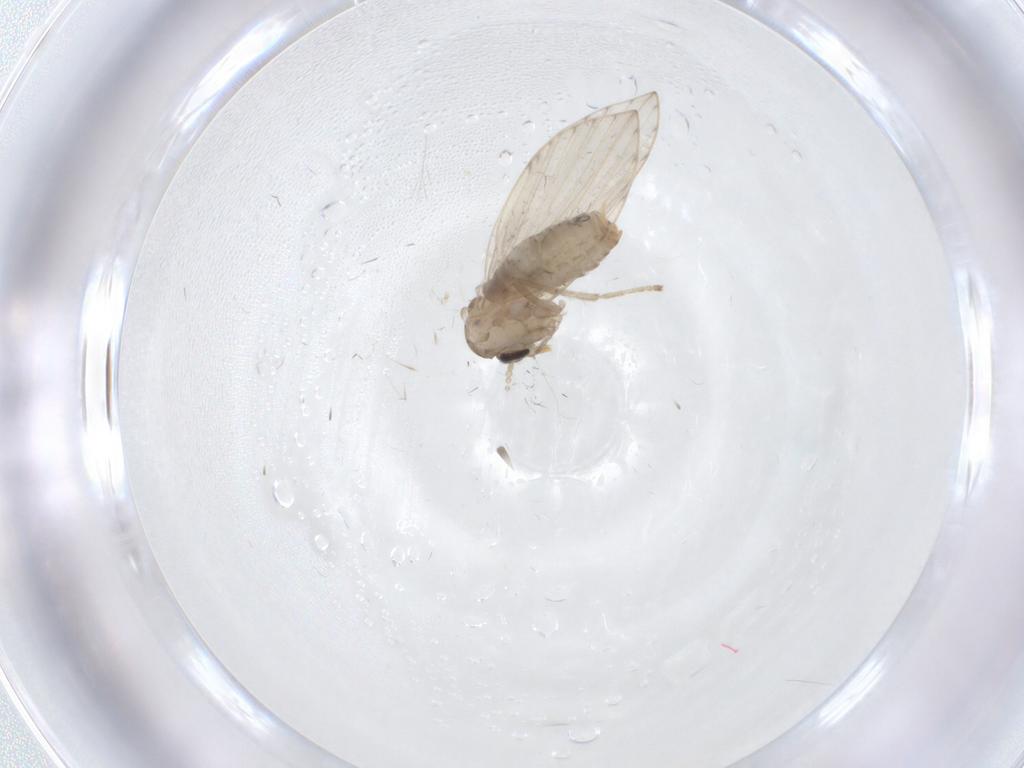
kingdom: Animalia
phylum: Arthropoda
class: Insecta
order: Diptera
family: Psychodidae
